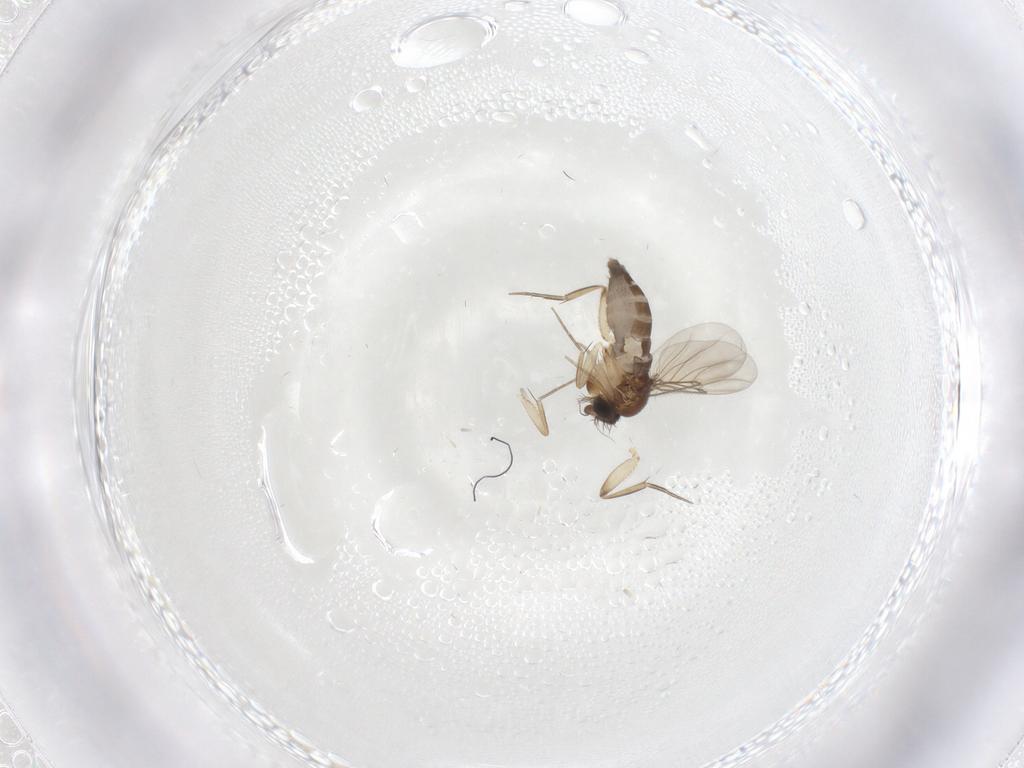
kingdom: Animalia
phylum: Arthropoda
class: Insecta
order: Diptera
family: Phoridae
